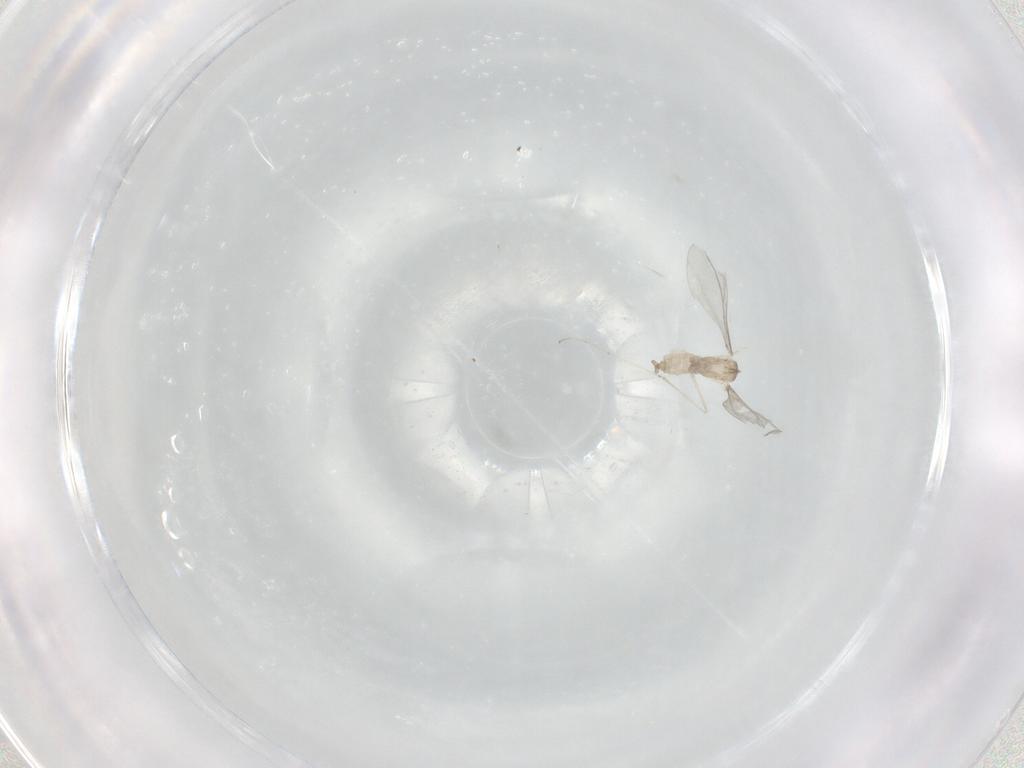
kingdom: Animalia
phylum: Arthropoda
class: Insecta
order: Diptera
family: Cecidomyiidae
